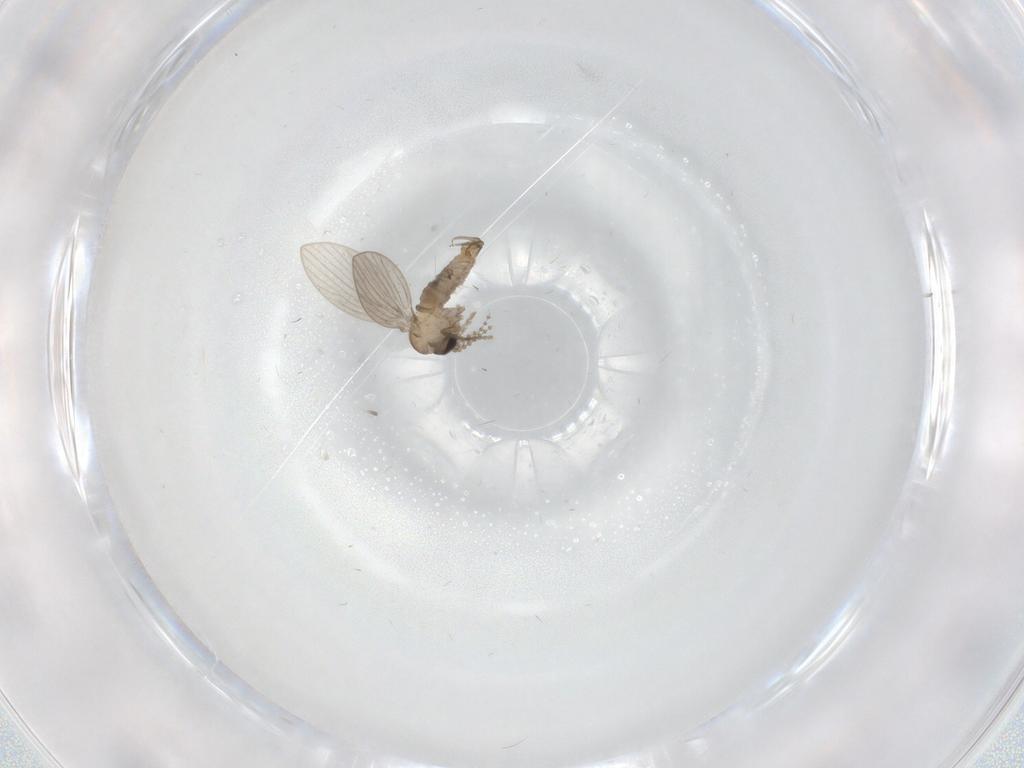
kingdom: Animalia
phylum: Arthropoda
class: Insecta
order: Diptera
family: Psychodidae
